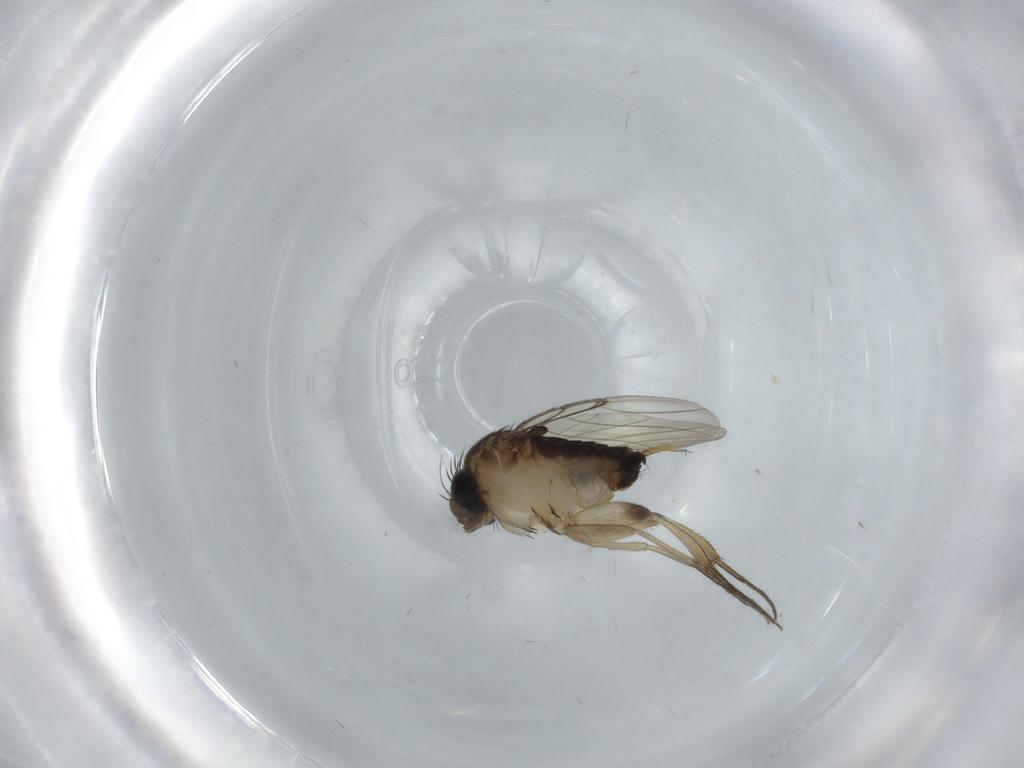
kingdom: Animalia
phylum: Arthropoda
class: Insecta
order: Diptera
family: Phoridae
